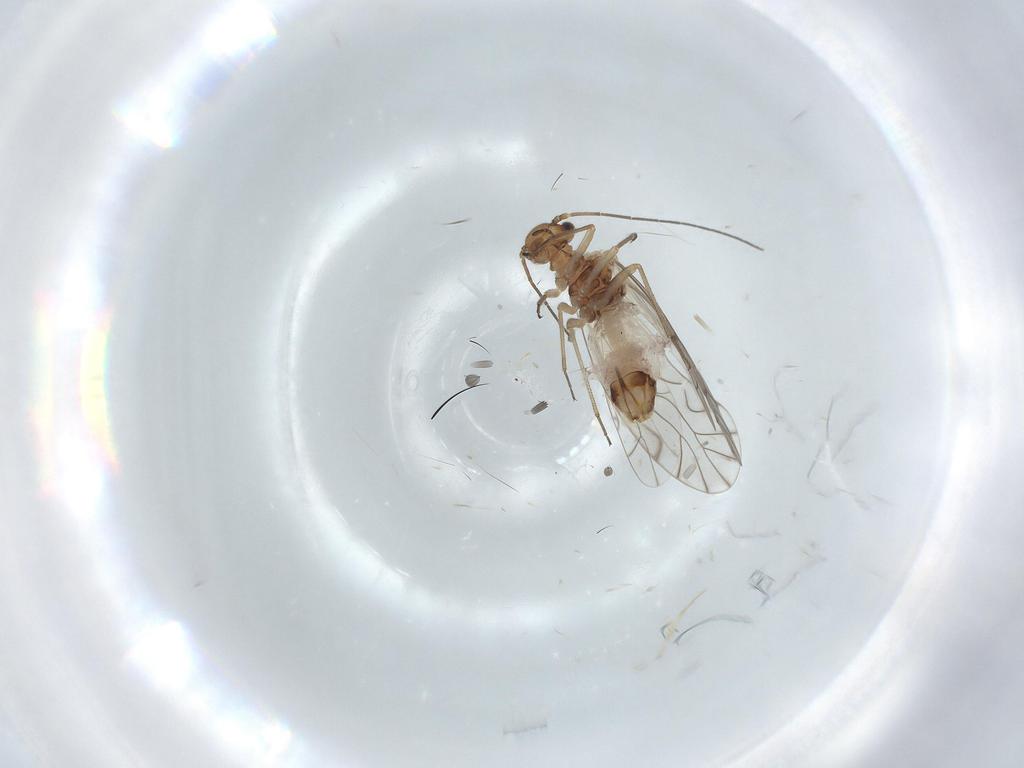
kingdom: Animalia
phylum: Arthropoda
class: Insecta
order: Psocodea
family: Lachesillidae
